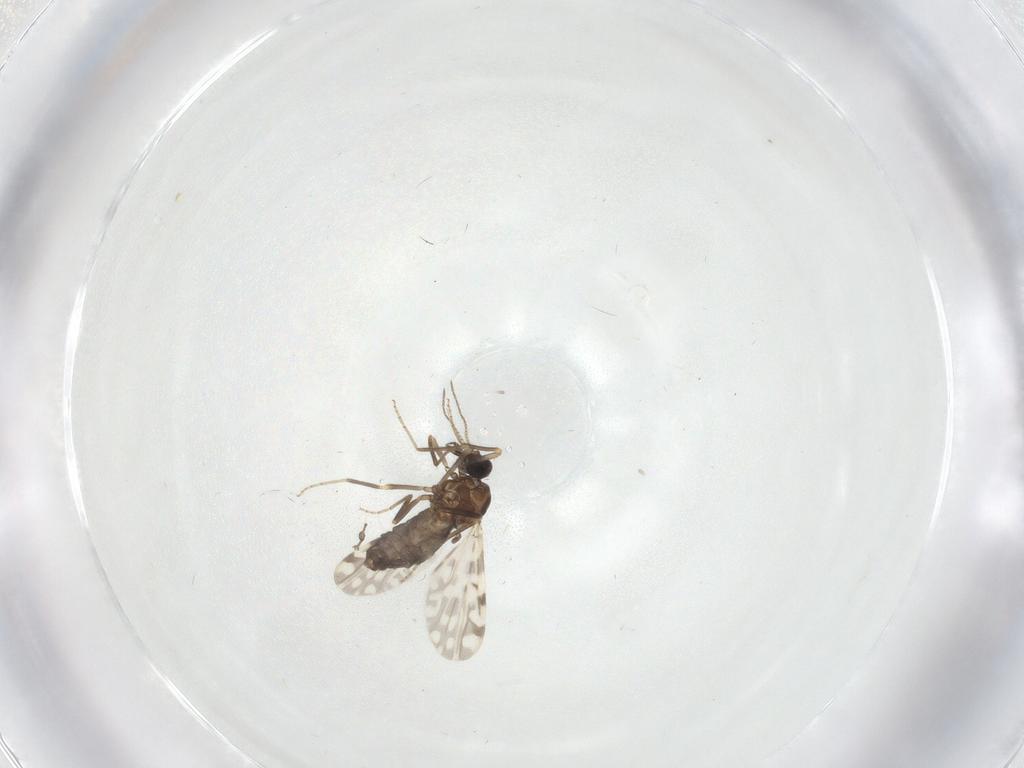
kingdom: Animalia
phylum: Arthropoda
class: Insecta
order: Diptera
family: Ceratopogonidae
